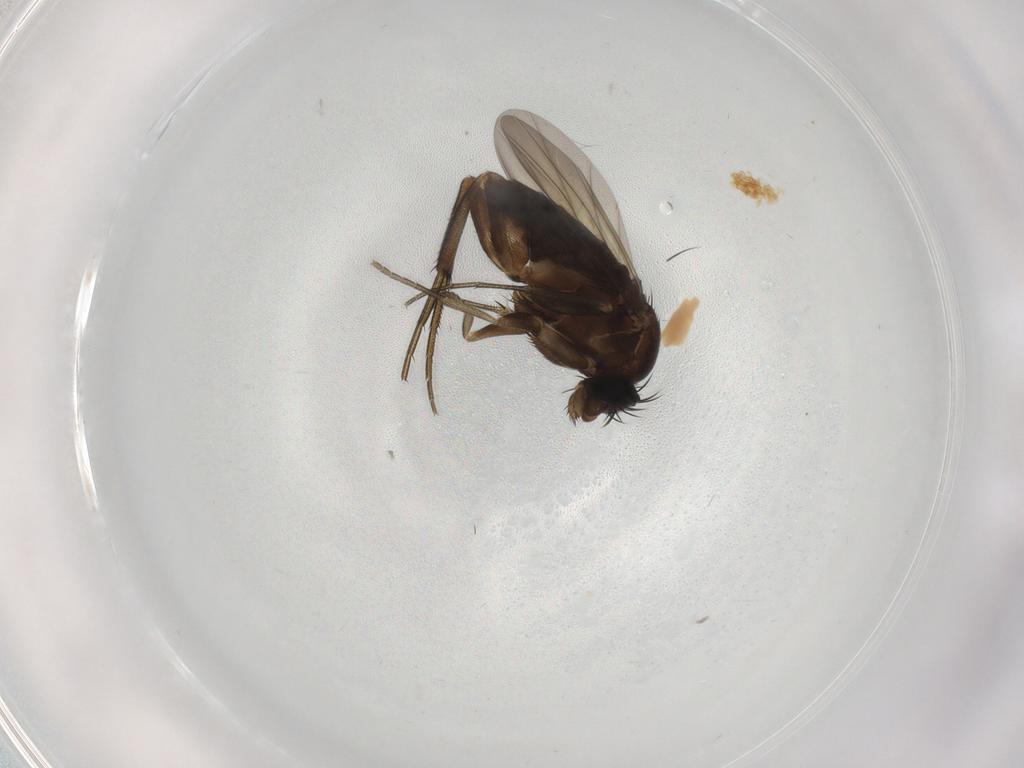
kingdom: Animalia
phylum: Arthropoda
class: Insecta
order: Diptera
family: Phoridae
